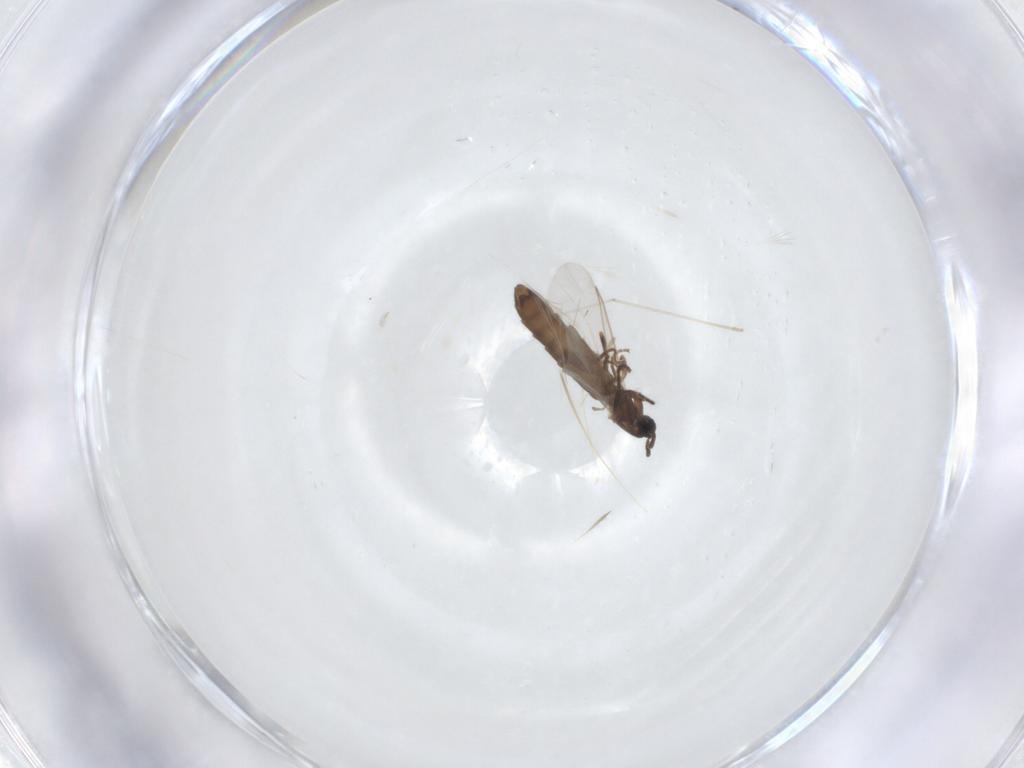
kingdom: Animalia
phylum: Arthropoda
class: Insecta
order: Diptera
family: Scatopsidae
